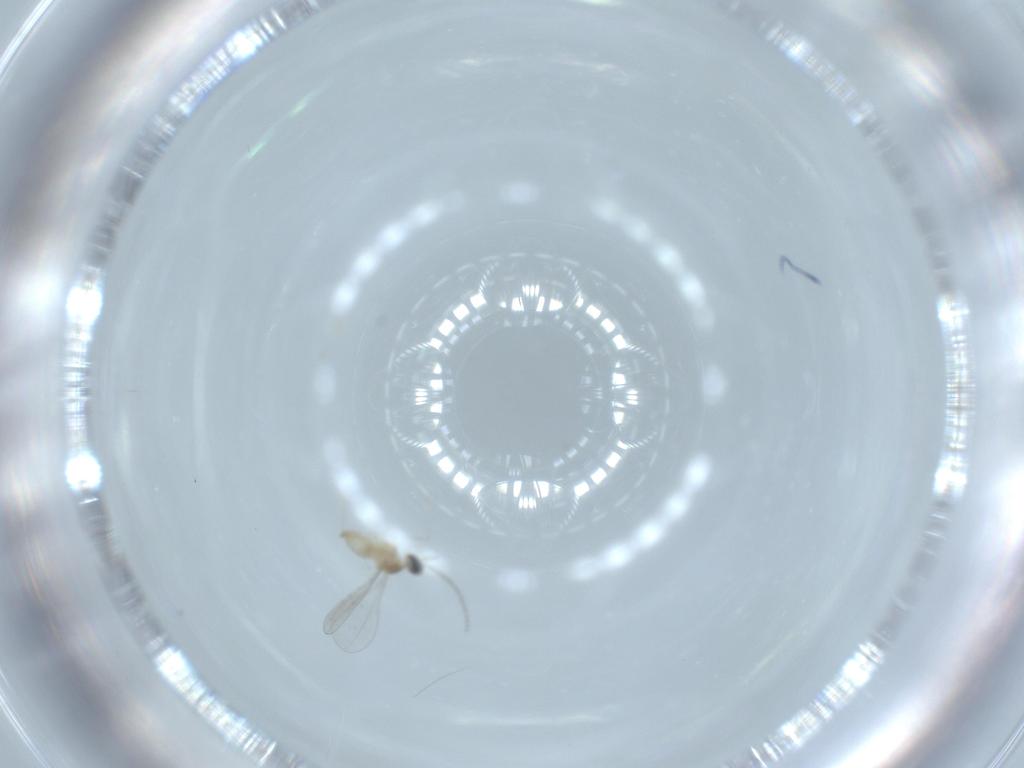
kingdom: Animalia
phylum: Arthropoda
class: Insecta
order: Diptera
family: Cecidomyiidae
